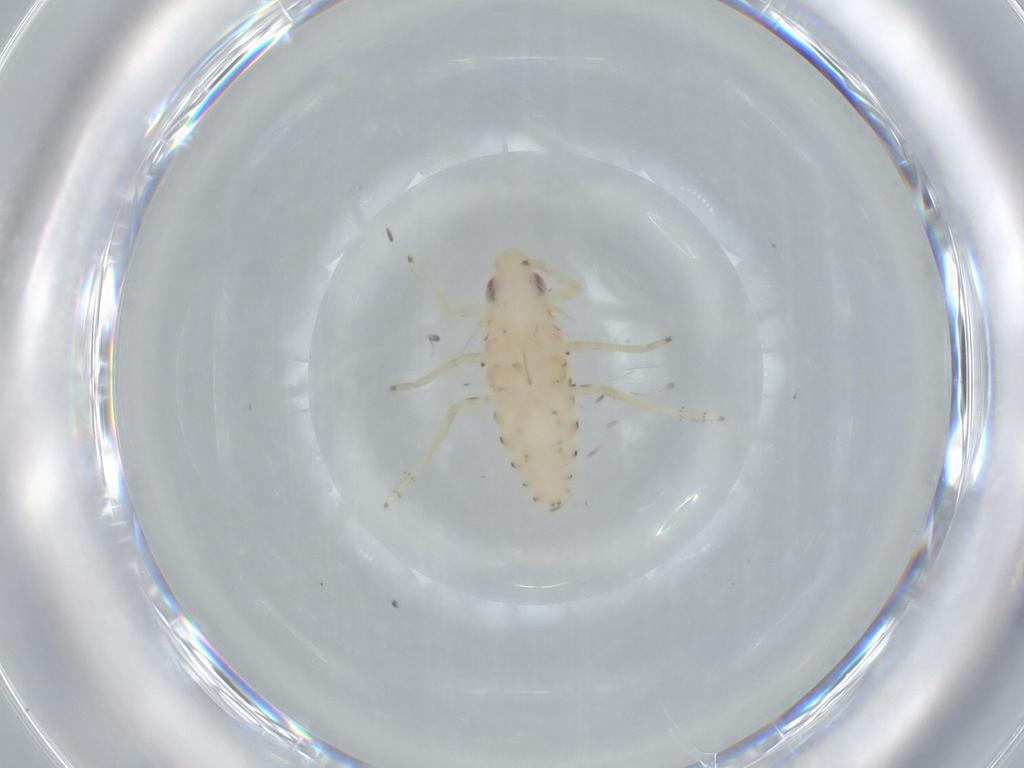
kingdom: Animalia
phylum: Arthropoda
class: Insecta
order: Hemiptera
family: Tropiduchidae
